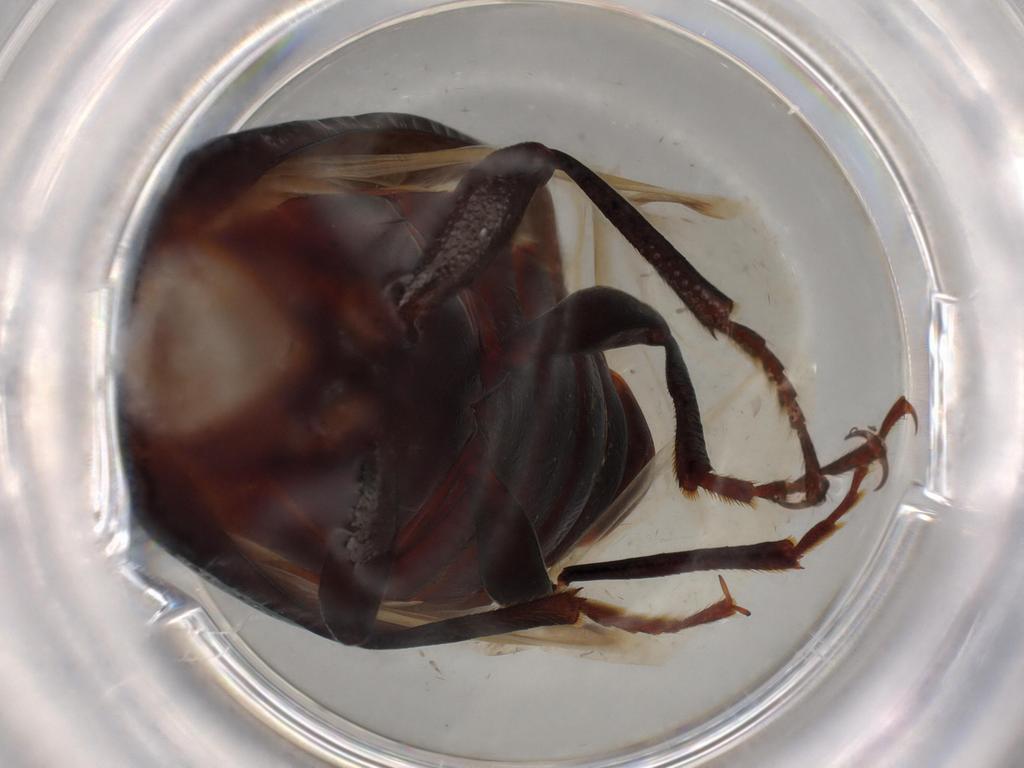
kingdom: Animalia
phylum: Arthropoda
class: Insecta
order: Coleoptera
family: Tenebrionidae
